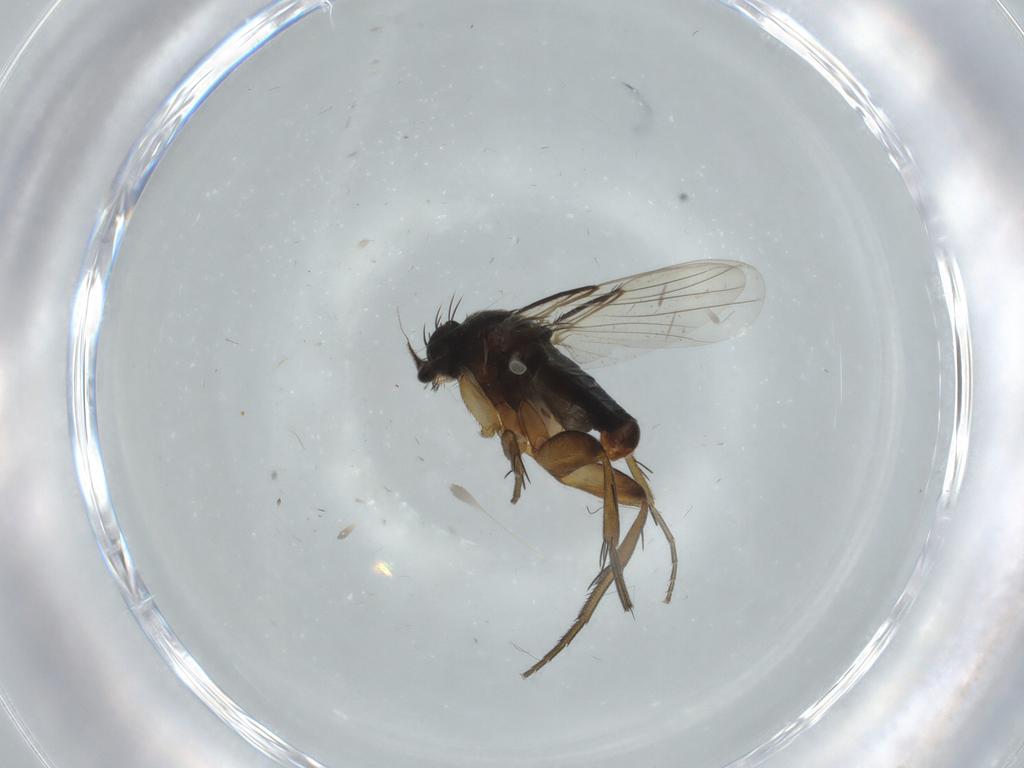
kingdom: Animalia
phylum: Arthropoda
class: Insecta
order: Diptera
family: Phoridae
